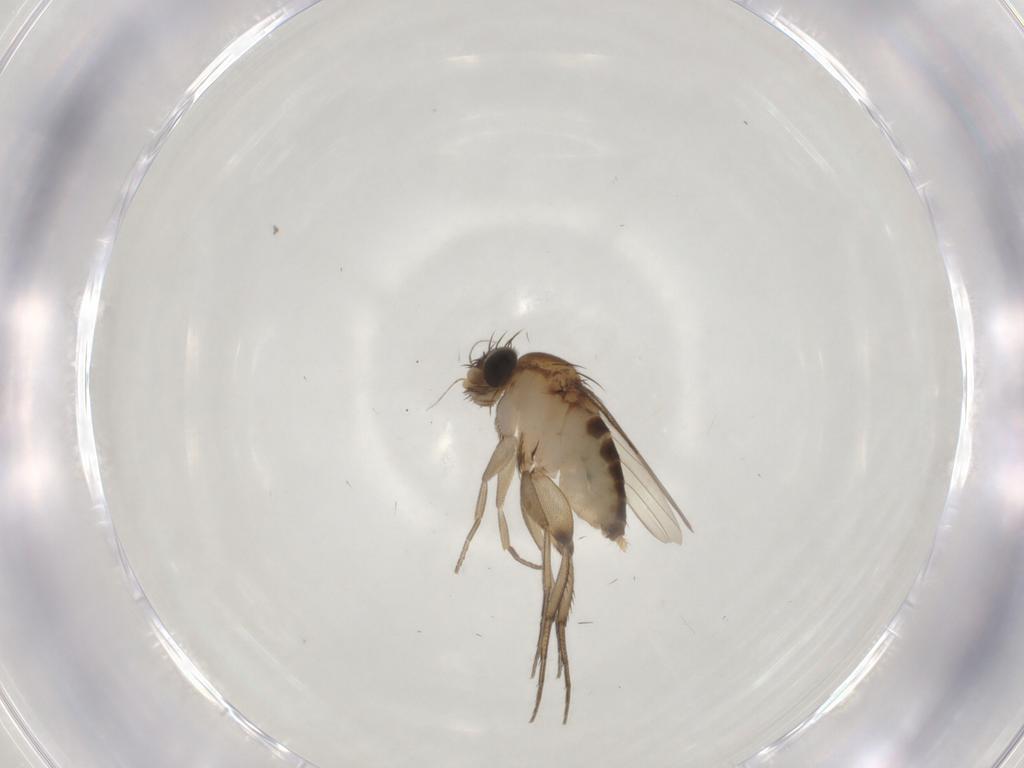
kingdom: Animalia
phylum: Arthropoda
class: Insecta
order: Diptera
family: Phoridae
